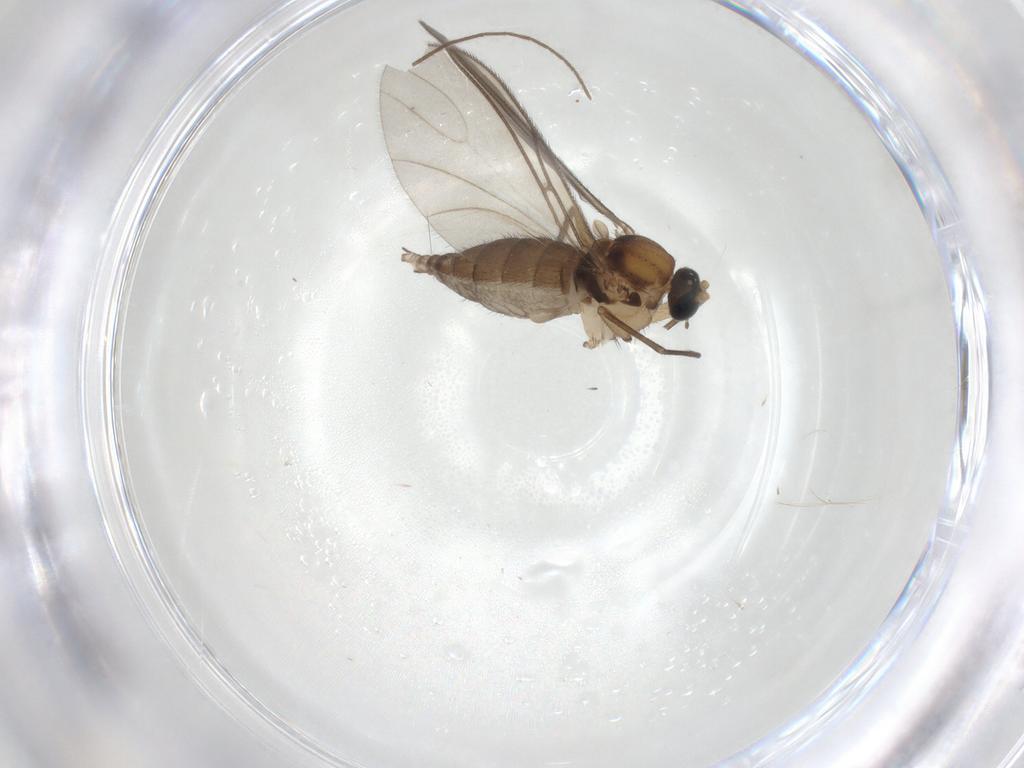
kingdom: Animalia
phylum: Arthropoda
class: Insecta
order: Diptera
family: Sciaridae
